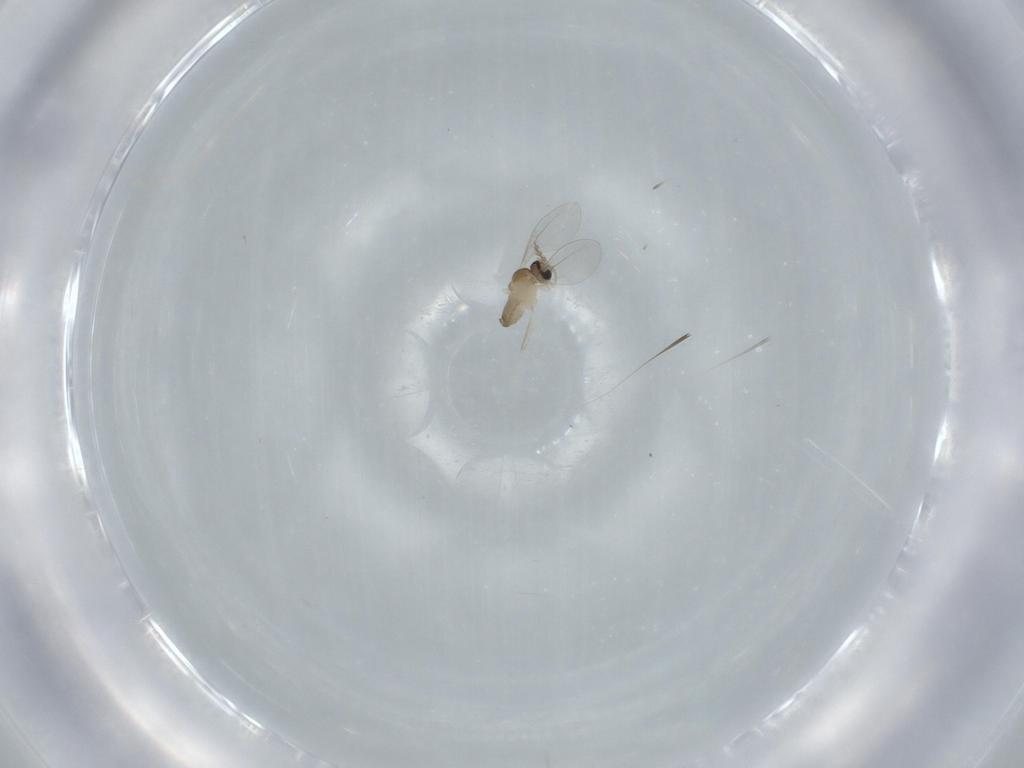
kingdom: Animalia
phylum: Arthropoda
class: Insecta
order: Diptera
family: Cecidomyiidae
